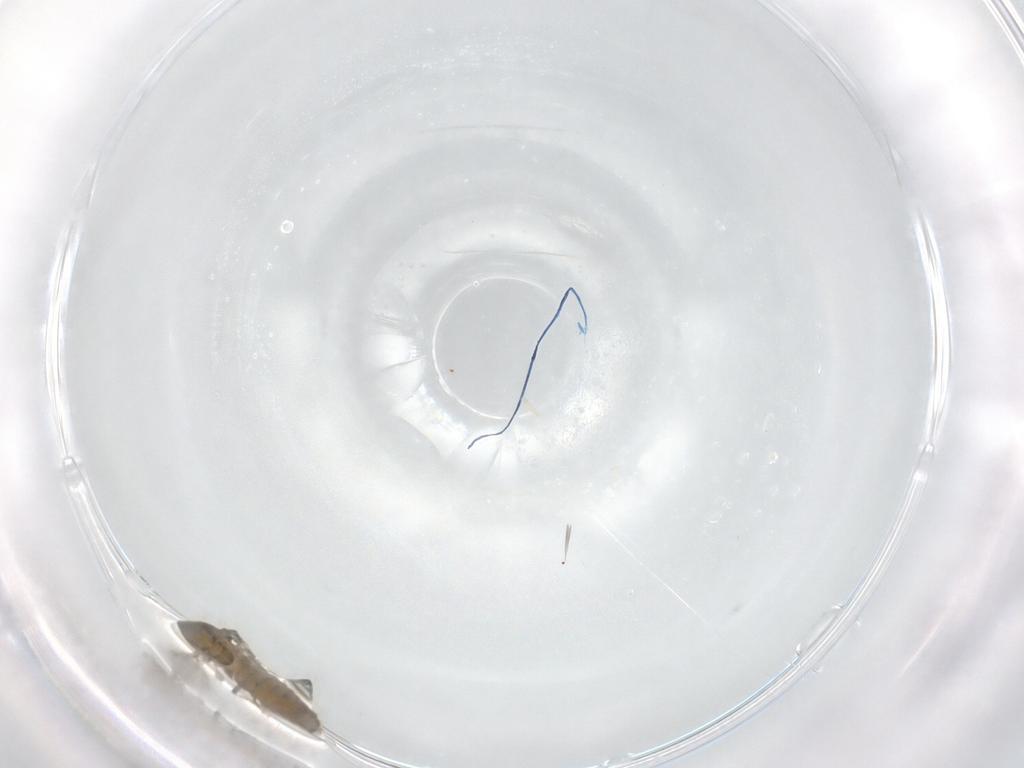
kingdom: Animalia
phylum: Arthropoda
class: Insecta
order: Diptera
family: Chironomidae
